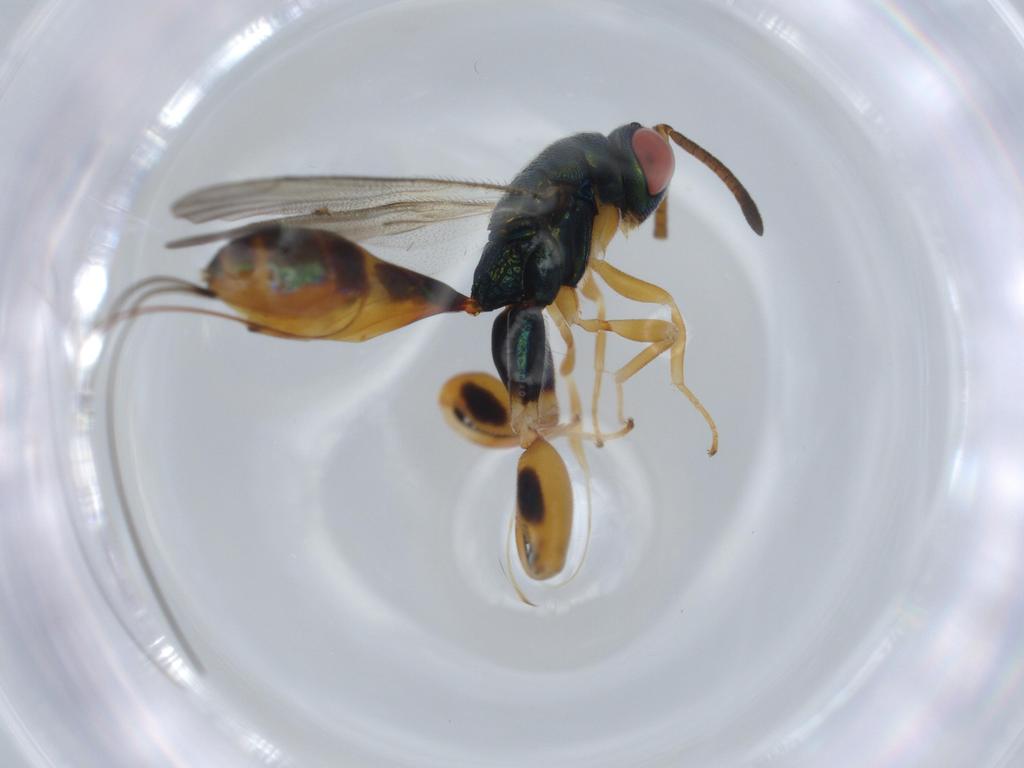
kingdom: Animalia
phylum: Arthropoda
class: Insecta
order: Hymenoptera
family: Torymidae
